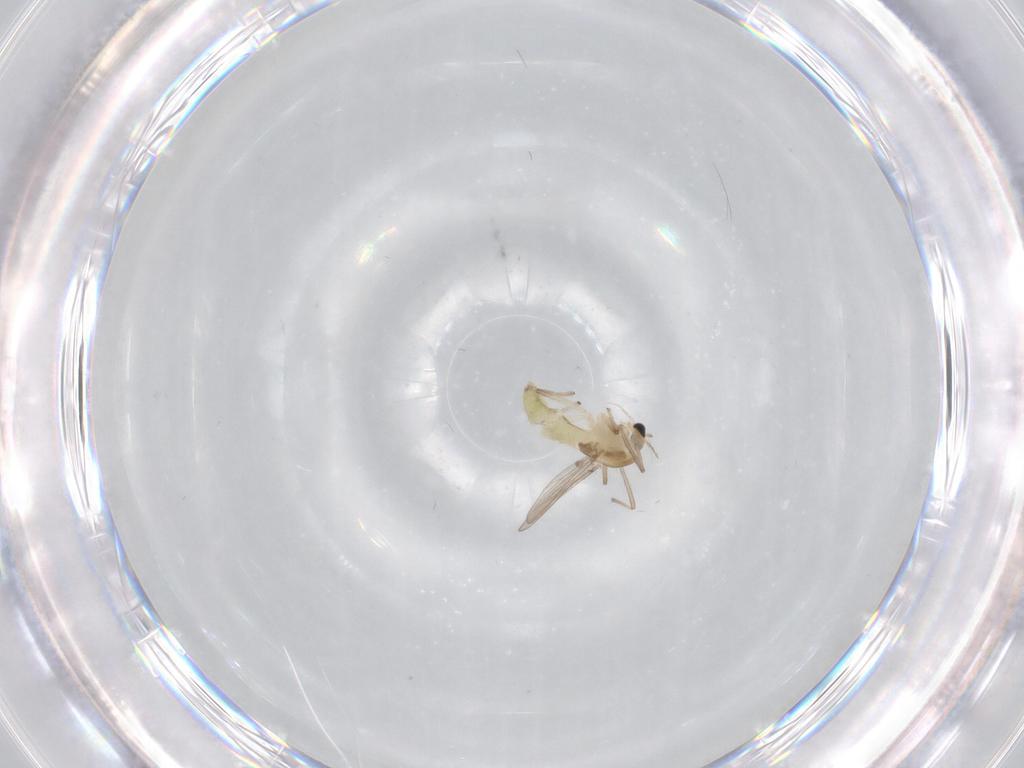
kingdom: Animalia
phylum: Arthropoda
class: Insecta
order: Diptera
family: Chironomidae
